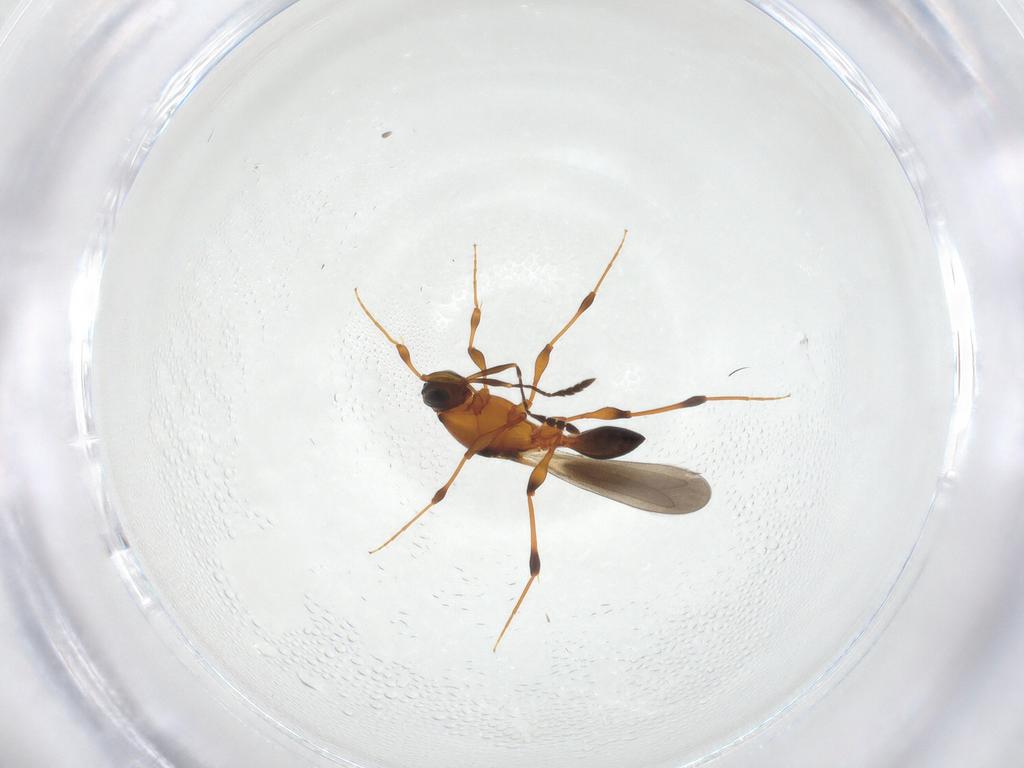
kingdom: Animalia
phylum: Arthropoda
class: Insecta
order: Hymenoptera
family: Platygastridae
